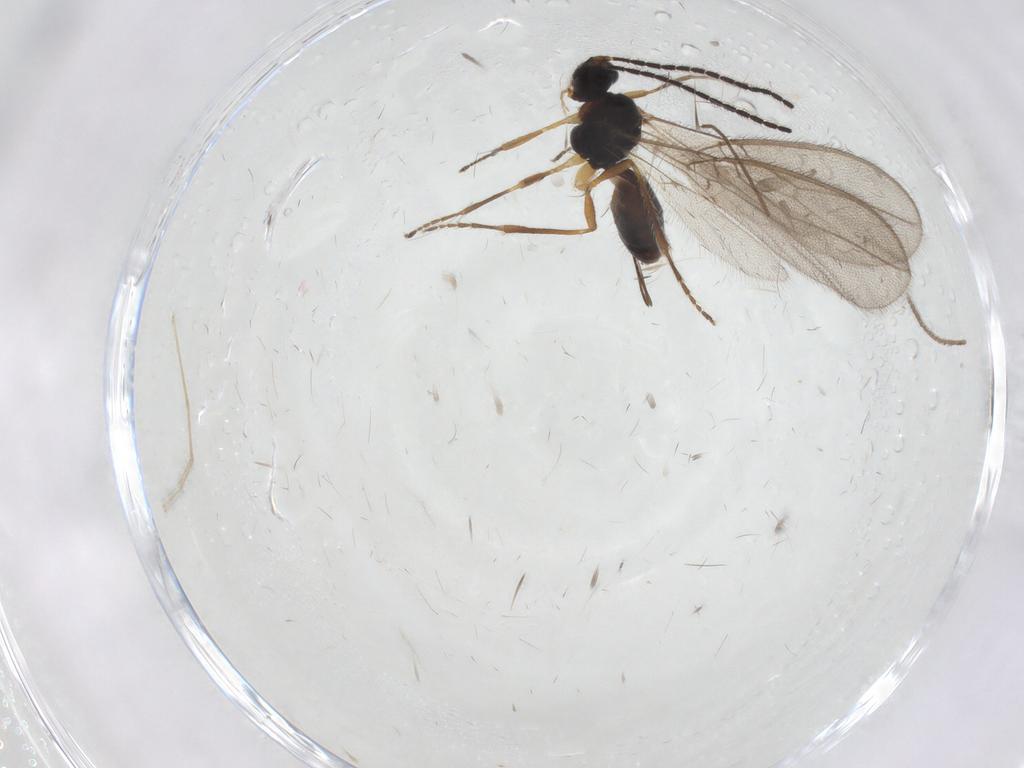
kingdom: Animalia
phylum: Arthropoda
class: Insecta
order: Hymenoptera
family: Braconidae
